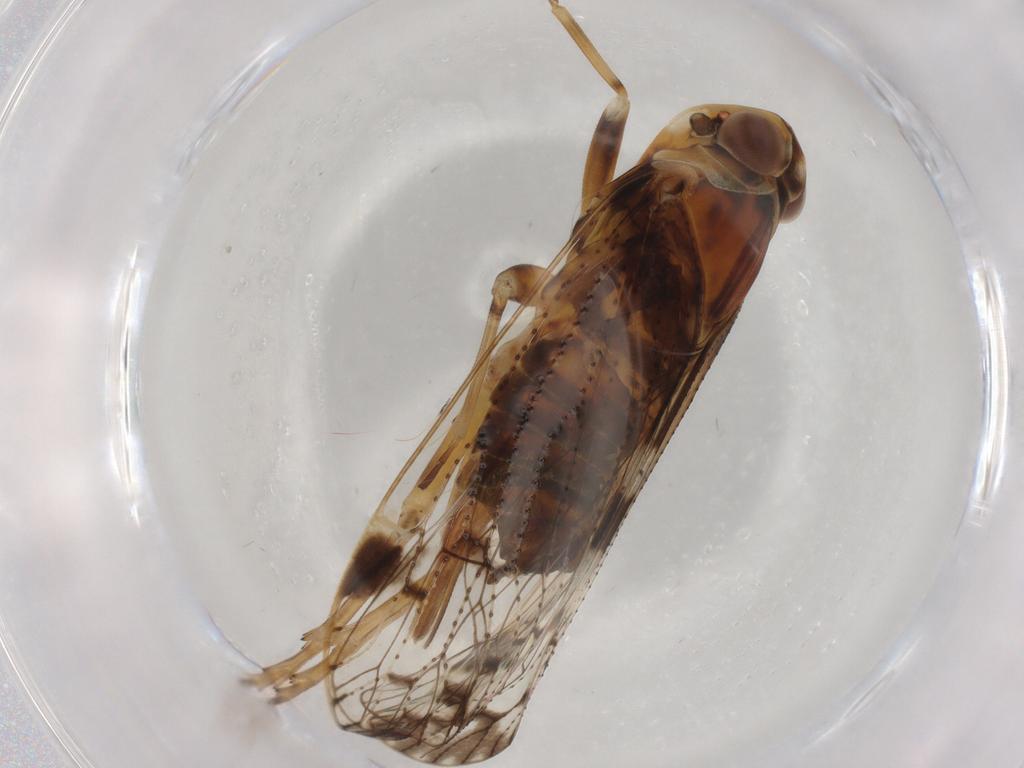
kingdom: Animalia
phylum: Arthropoda
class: Insecta
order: Hemiptera
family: Cixiidae
